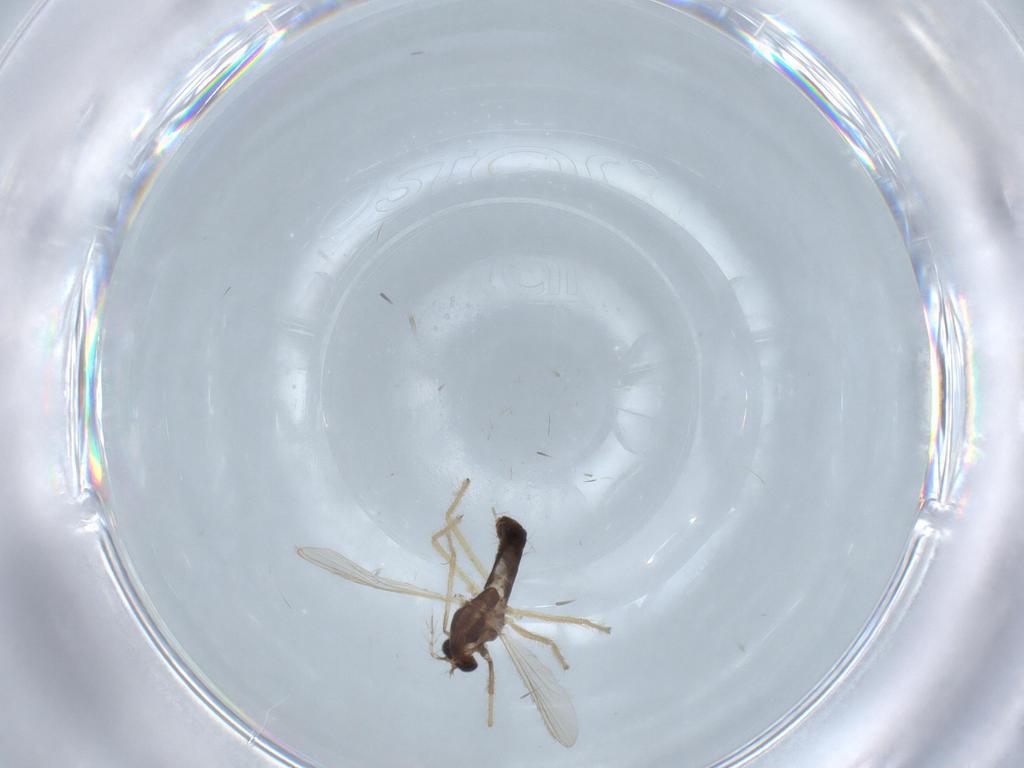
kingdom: Animalia
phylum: Arthropoda
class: Insecta
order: Diptera
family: Chironomidae
